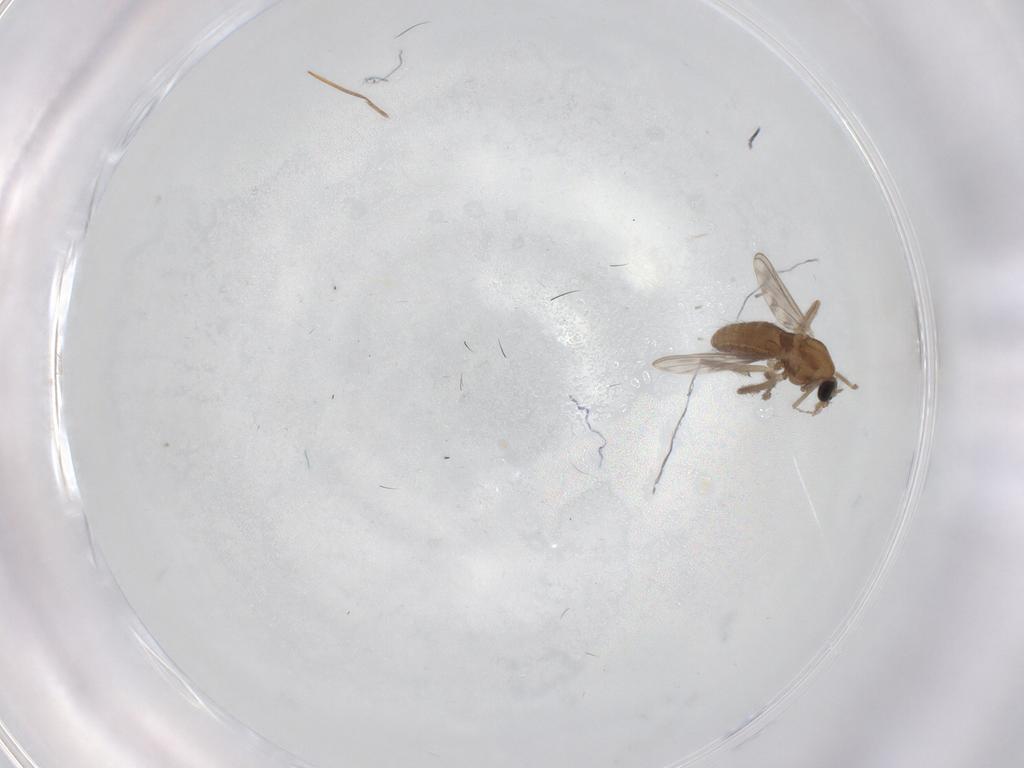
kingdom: Animalia
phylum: Arthropoda
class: Insecta
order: Diptera
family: Chironomidae
